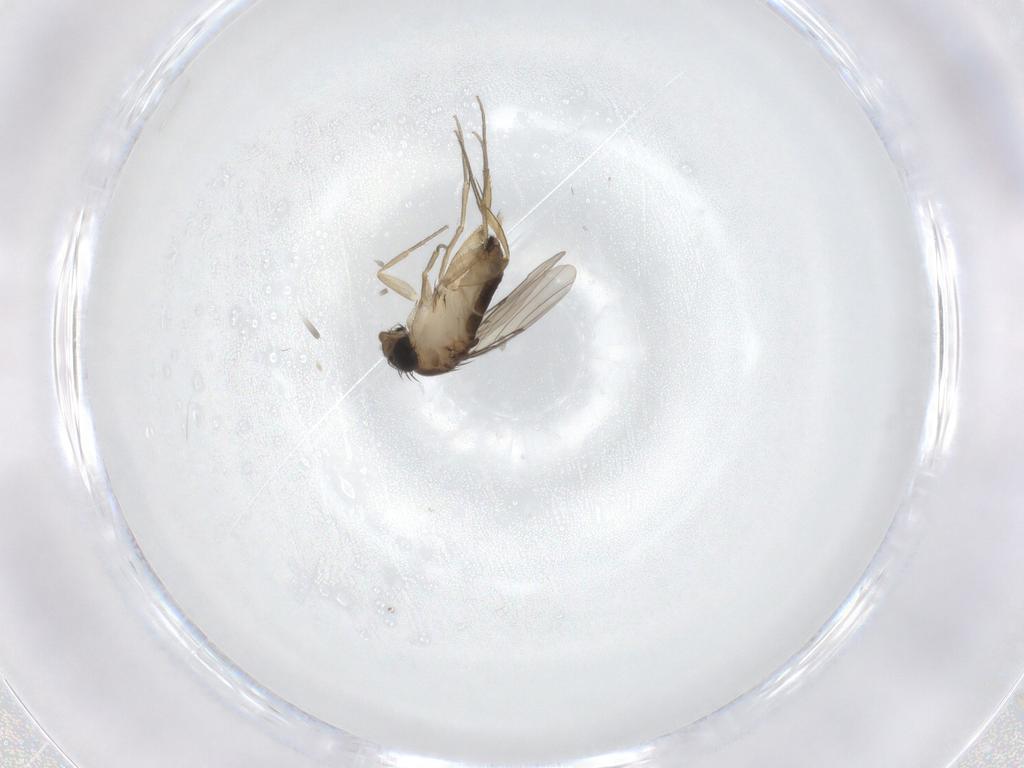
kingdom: Animalia
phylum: Arthropoda
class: Insecta
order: Diptera
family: Phoridae
